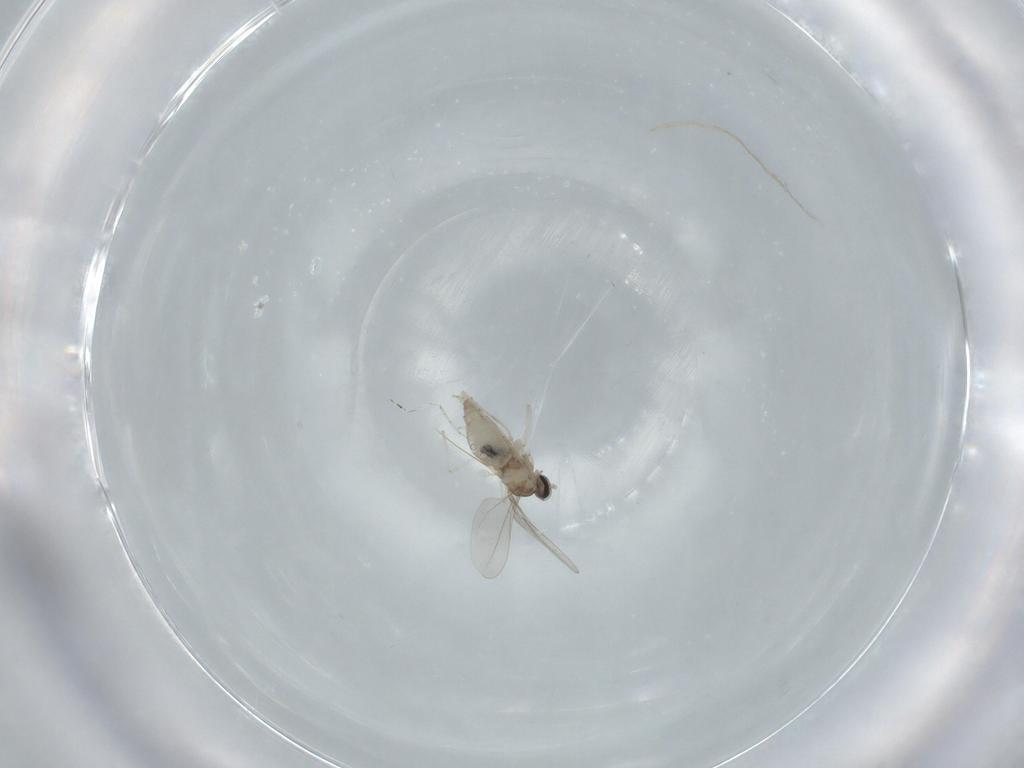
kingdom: Animalia
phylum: Arthropoda
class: Insecta
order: Diptera
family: Cecidomyiidae
